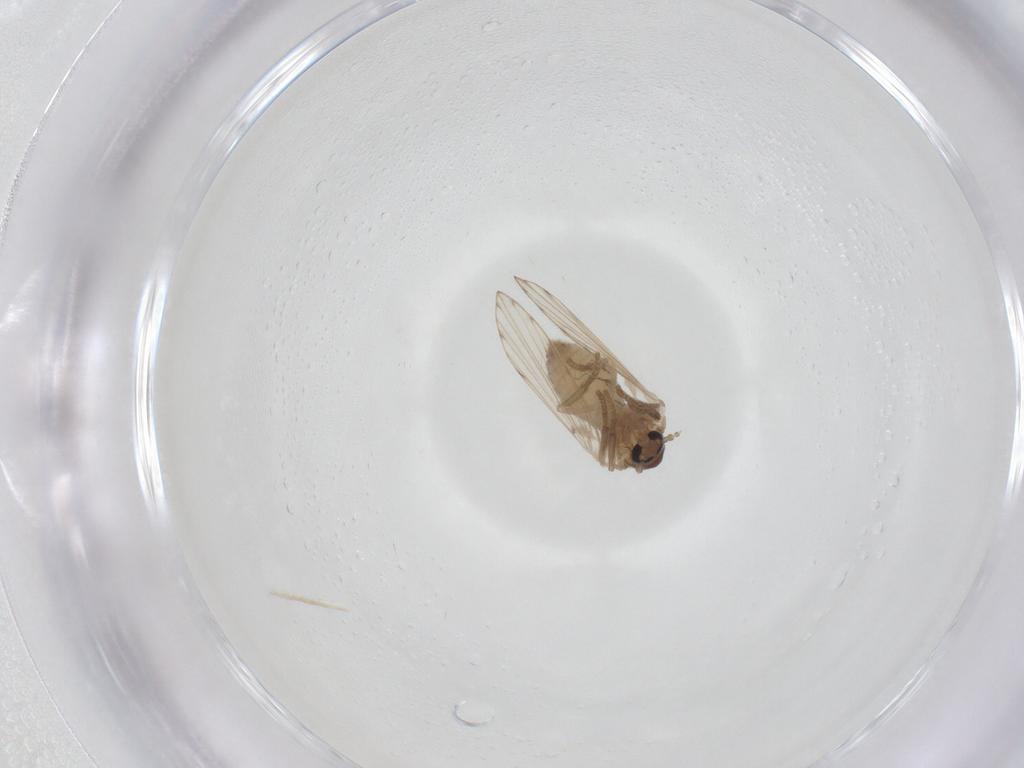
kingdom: Animalia
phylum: Arthropoda
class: Insecta
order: Diptera
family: Psychodidae
